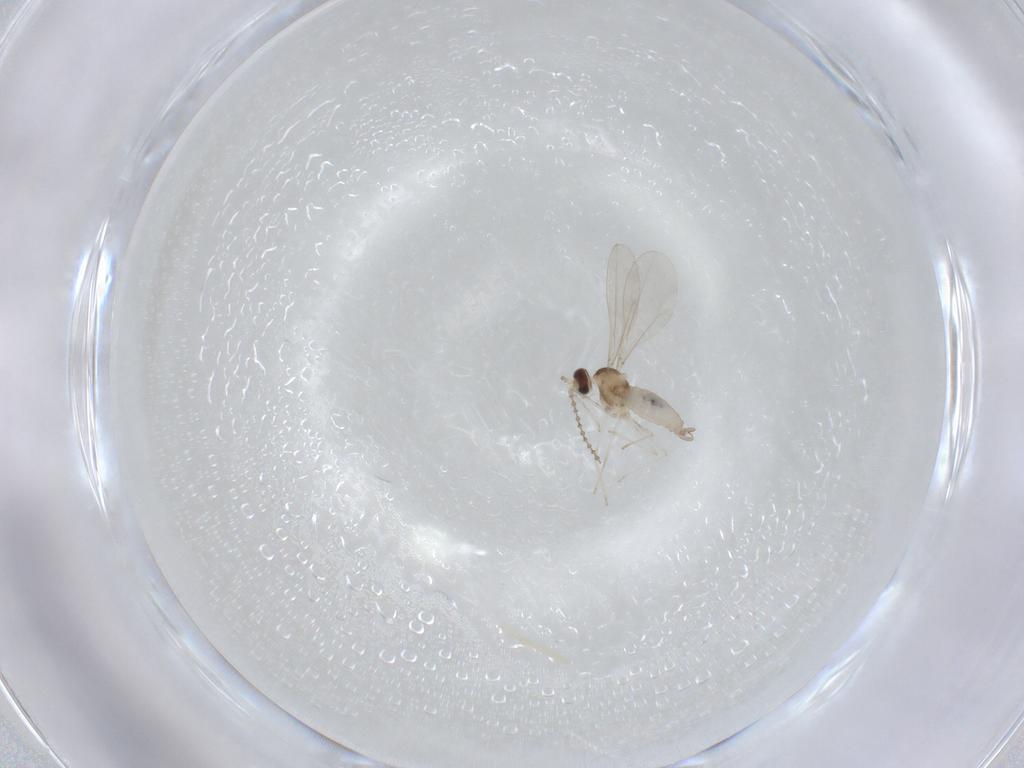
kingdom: Animalia
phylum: Arthropoda
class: Insecta
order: Diptera
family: Cecidomyiidae
